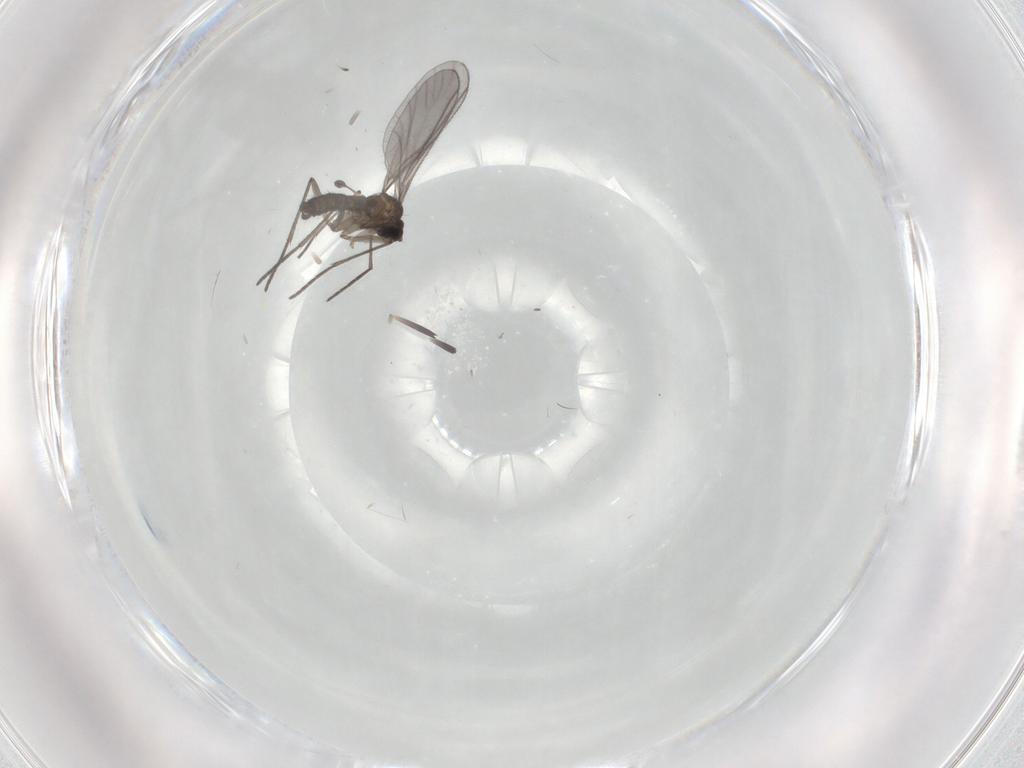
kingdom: Animalia
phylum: Arthropoda
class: Insecta
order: Diptera
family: Sciaridae
